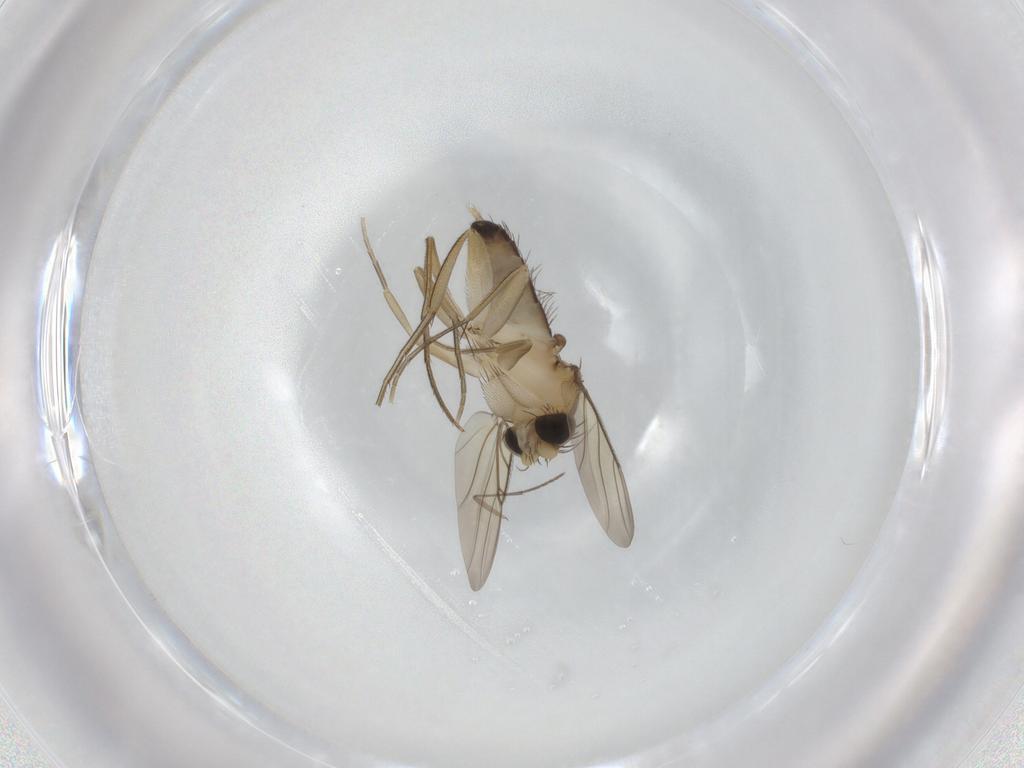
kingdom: Animalia
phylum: Arthropoda
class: Insecta
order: Diptera
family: Phoridae
